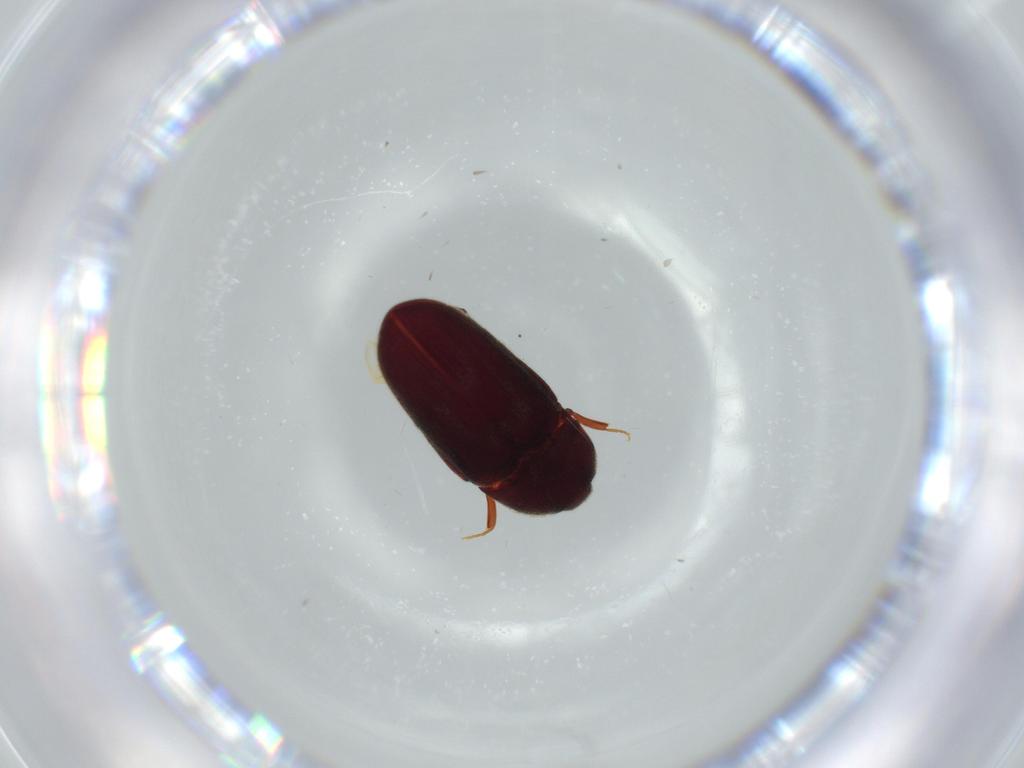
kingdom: Animalia
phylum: Arthropoda
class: Insecta
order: Coleoptera
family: Throscidae
